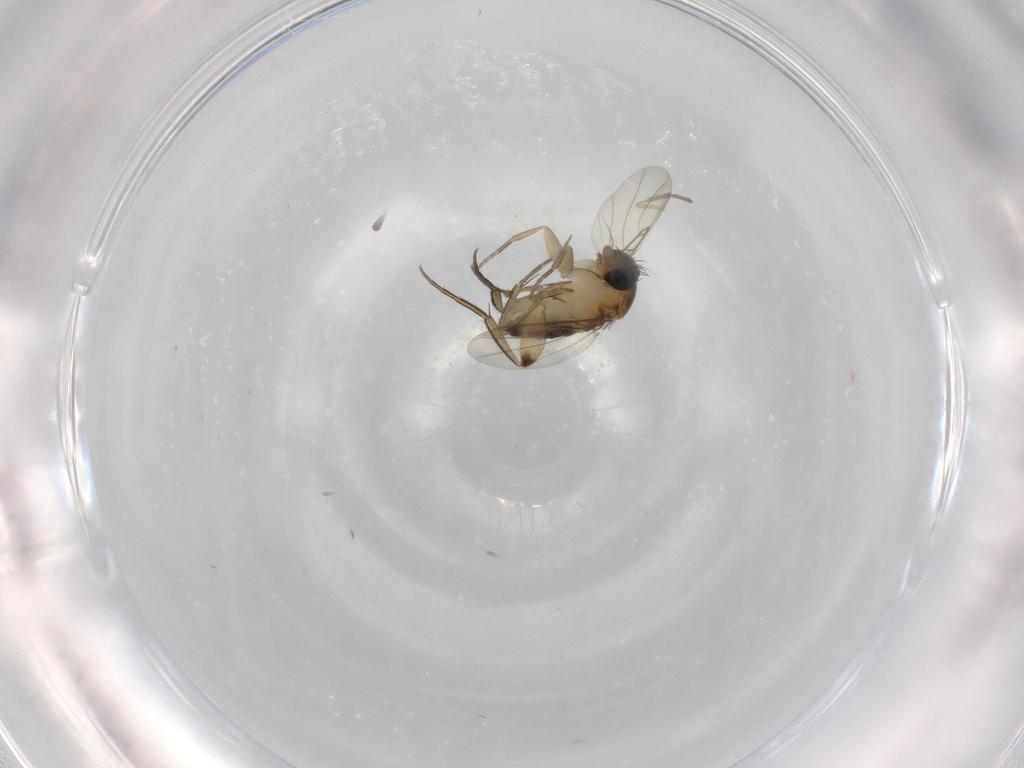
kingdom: Animalia
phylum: Arthropoda
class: Insecta
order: Diptera
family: Phoridae
